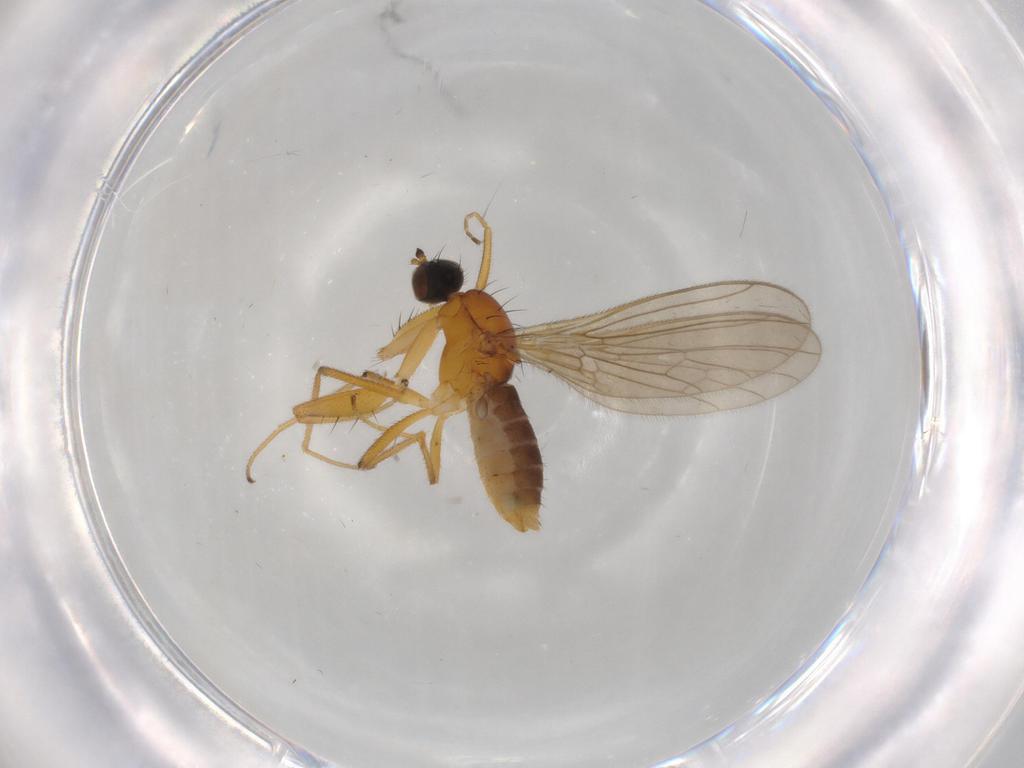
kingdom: Animalia
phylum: Arthropoda
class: Insecta
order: Diptera
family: Empididae
